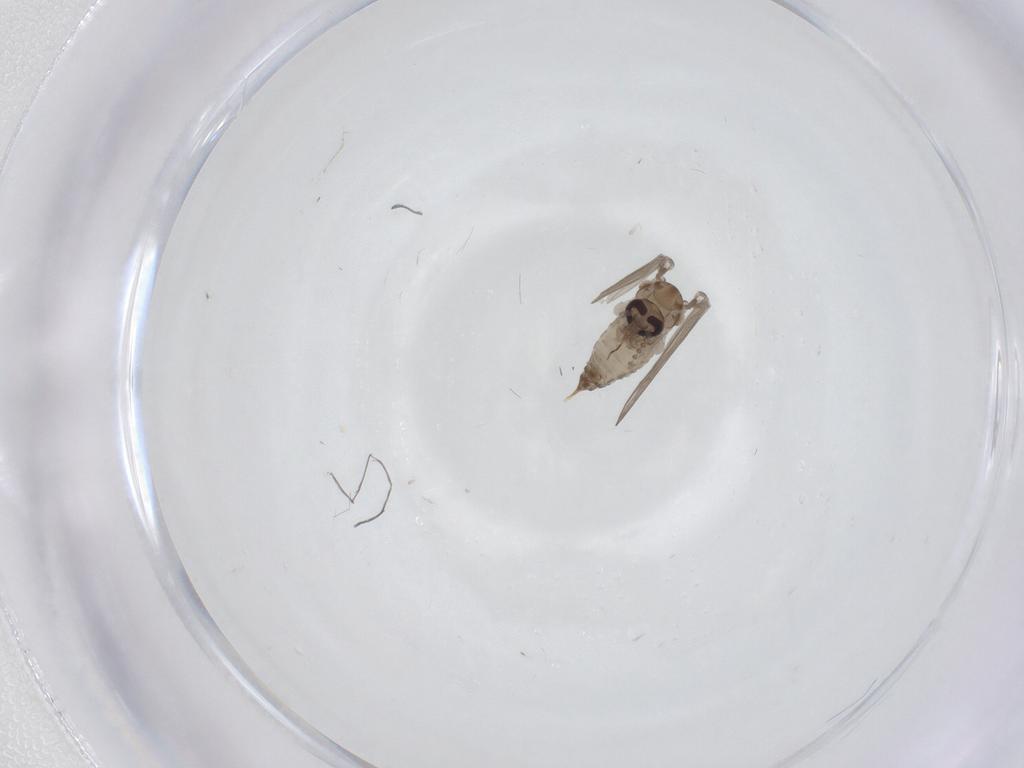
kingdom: Animalia
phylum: Arthropoda
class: Insecta
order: Diptera
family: Psychodidae
